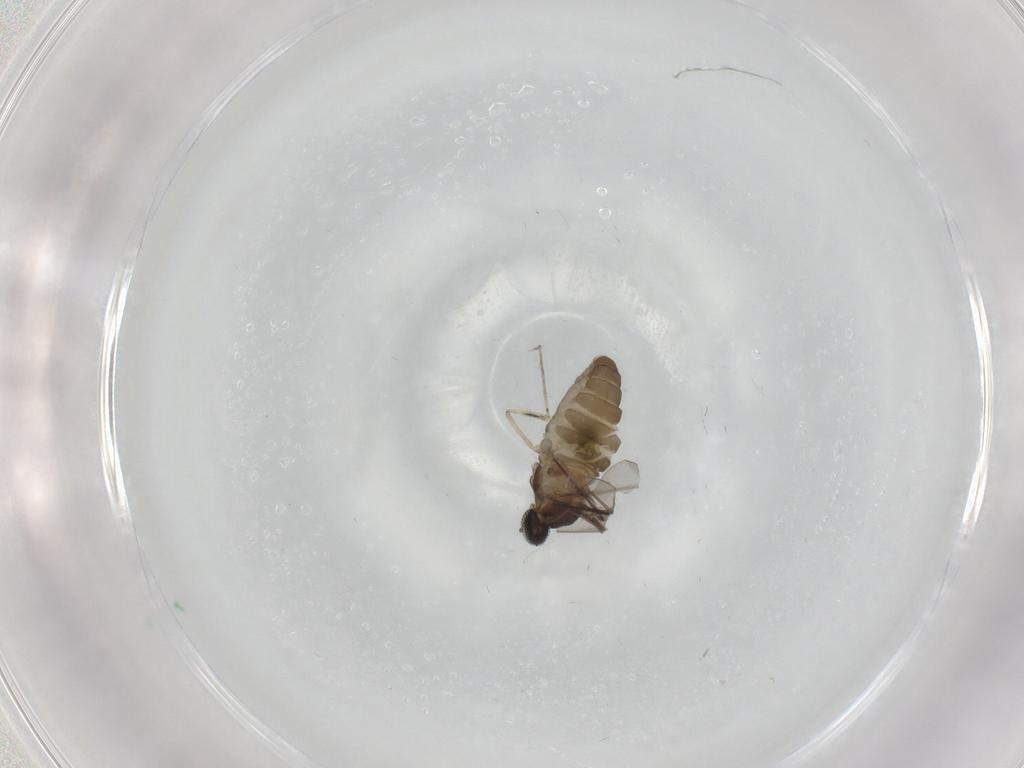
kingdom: Animalia
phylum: Arthropoda
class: Insecta
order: Diptera
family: Cecidomyiidae
